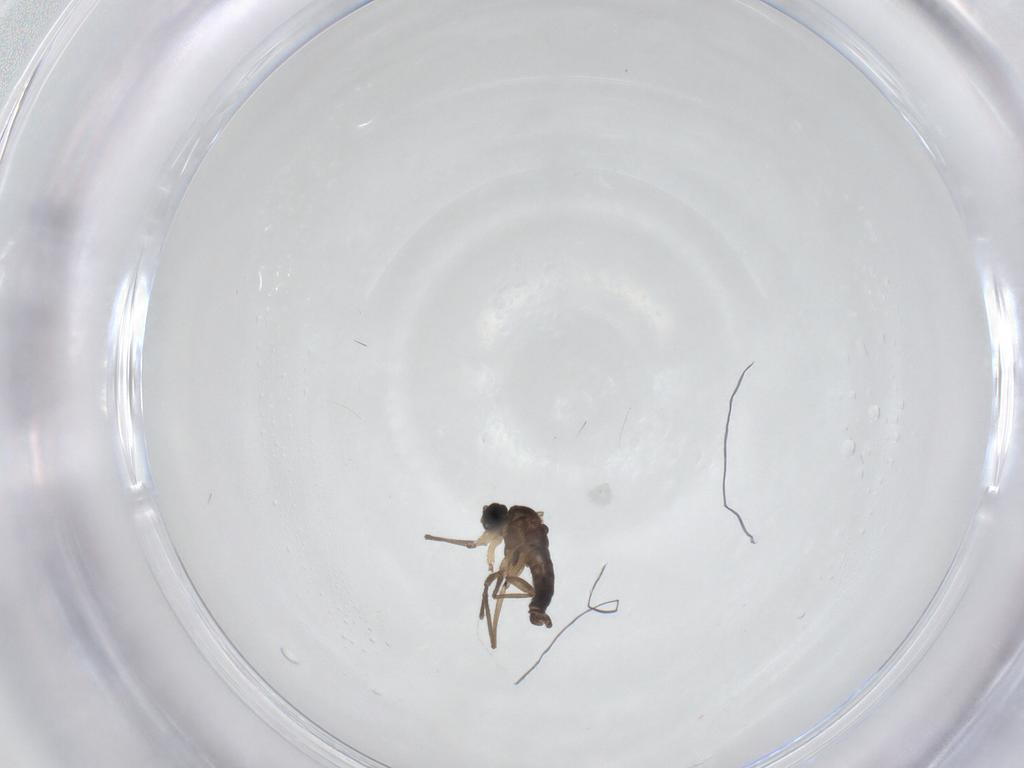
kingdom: Animalia
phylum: Arthropoda
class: Insecta
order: Diptera
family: Sciaridae
